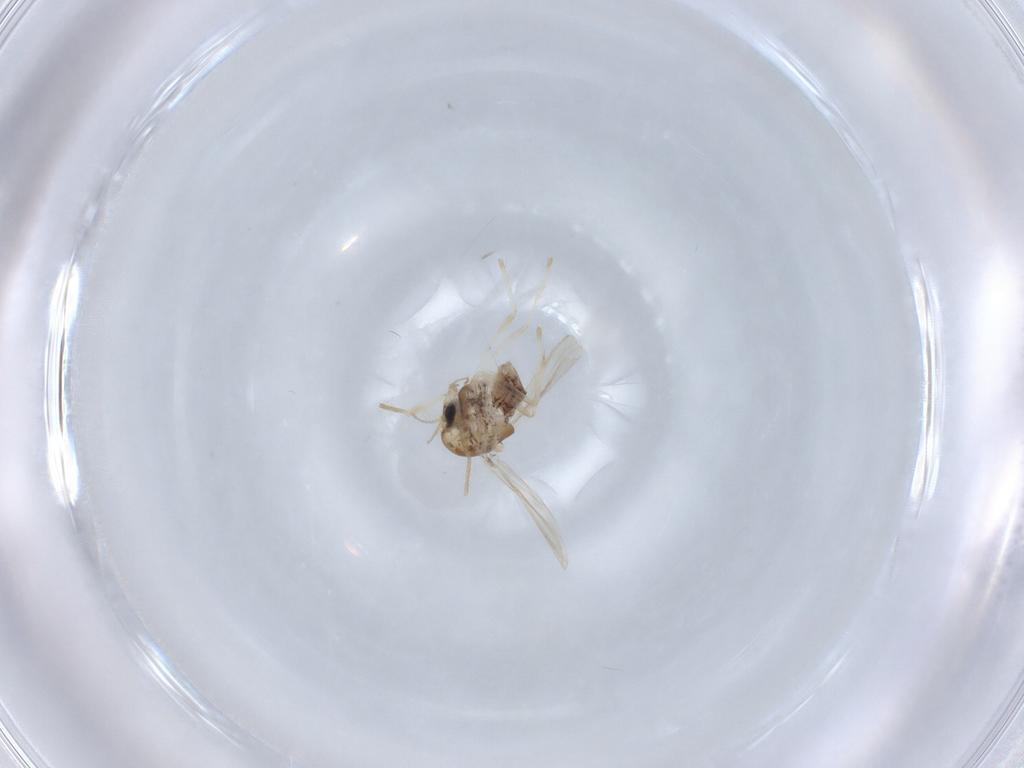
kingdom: Animalia
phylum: Arthropoda
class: Insecta
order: Diptera
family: Chironomidae
